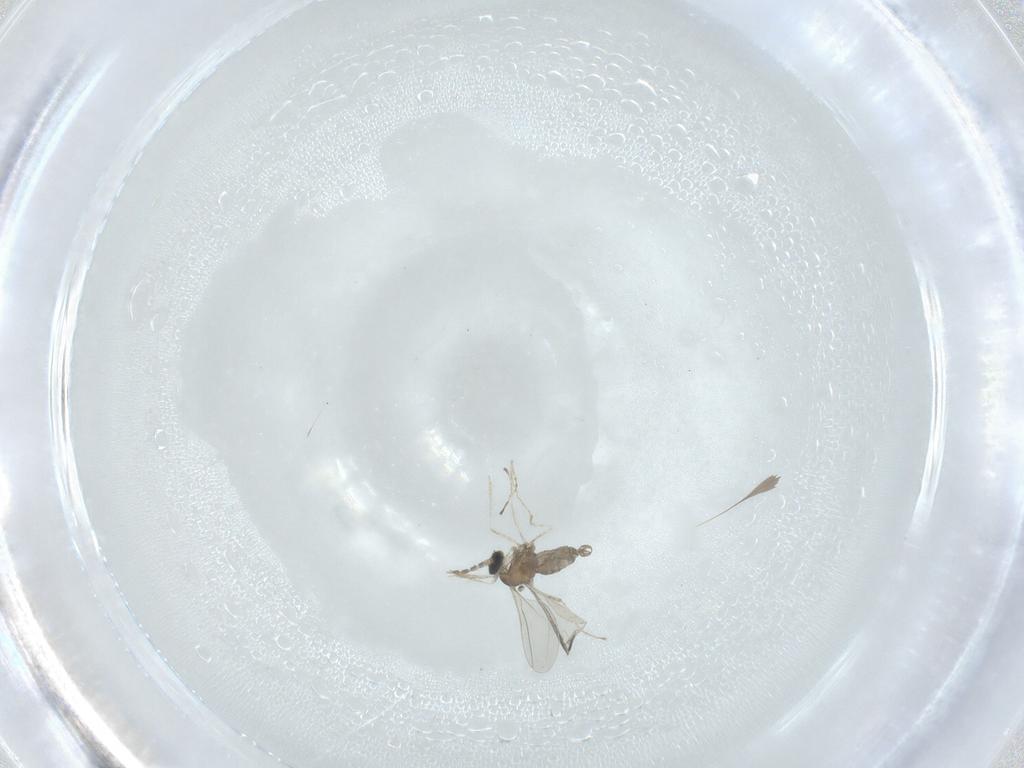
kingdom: Animalia
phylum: Arthropoda
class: Insecta
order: Diptera
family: Cecidomyiidae
